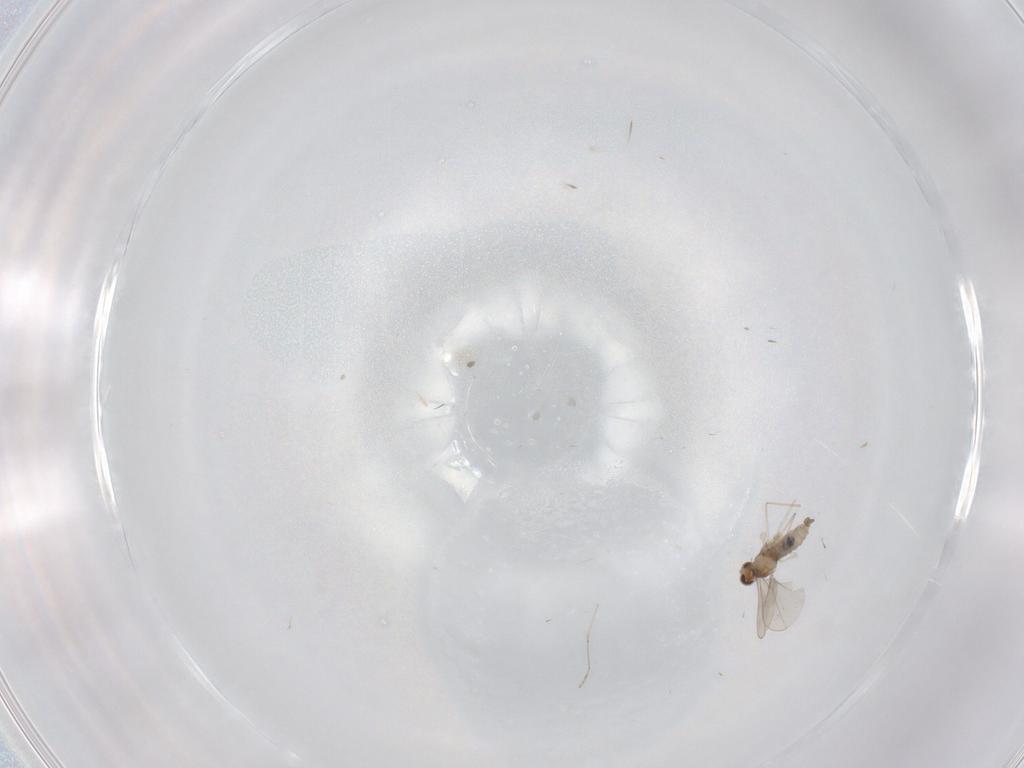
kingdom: Animalia
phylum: Arthropoda
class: Insecta
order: Diptera
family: Cecidomyiidae
